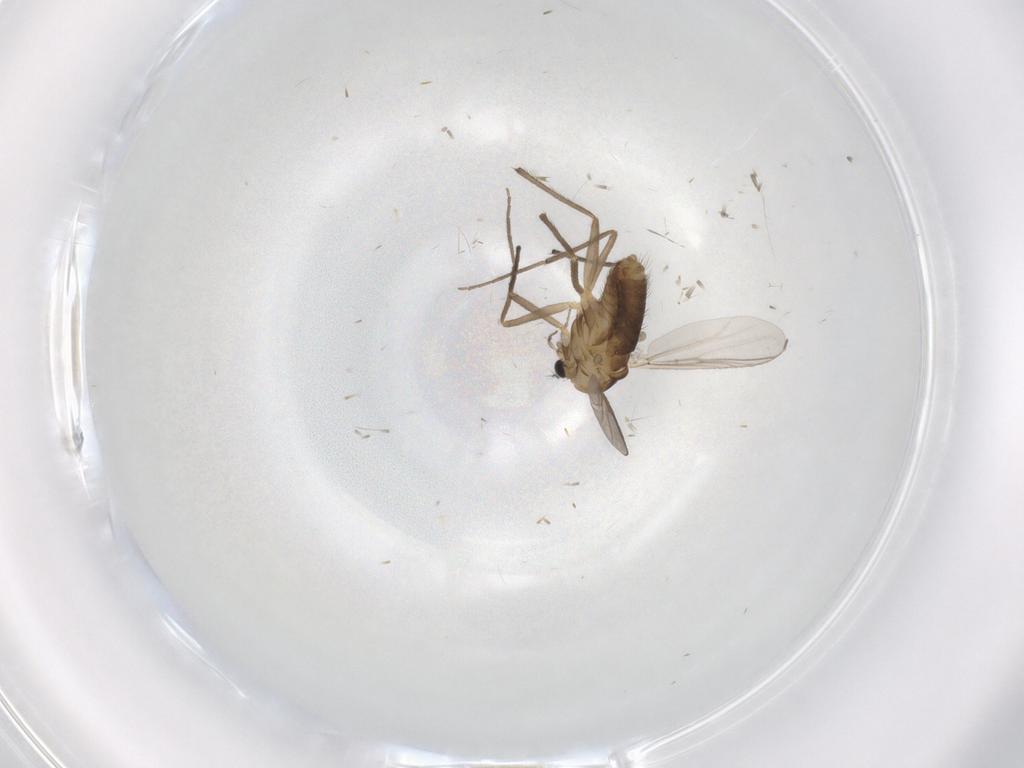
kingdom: Animalia
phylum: Arthropoda
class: Insecta
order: Diptera
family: Chironomidae
